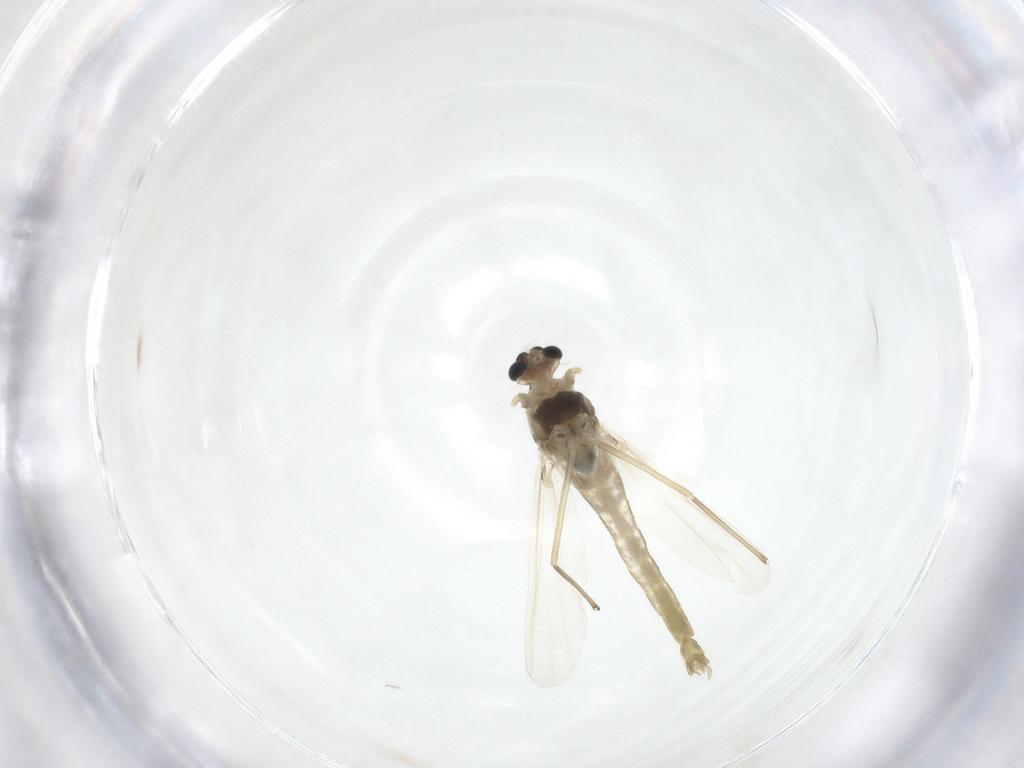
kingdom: Animalia
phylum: Arthropoda
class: Insecta
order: Diptera
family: Chironomidae
